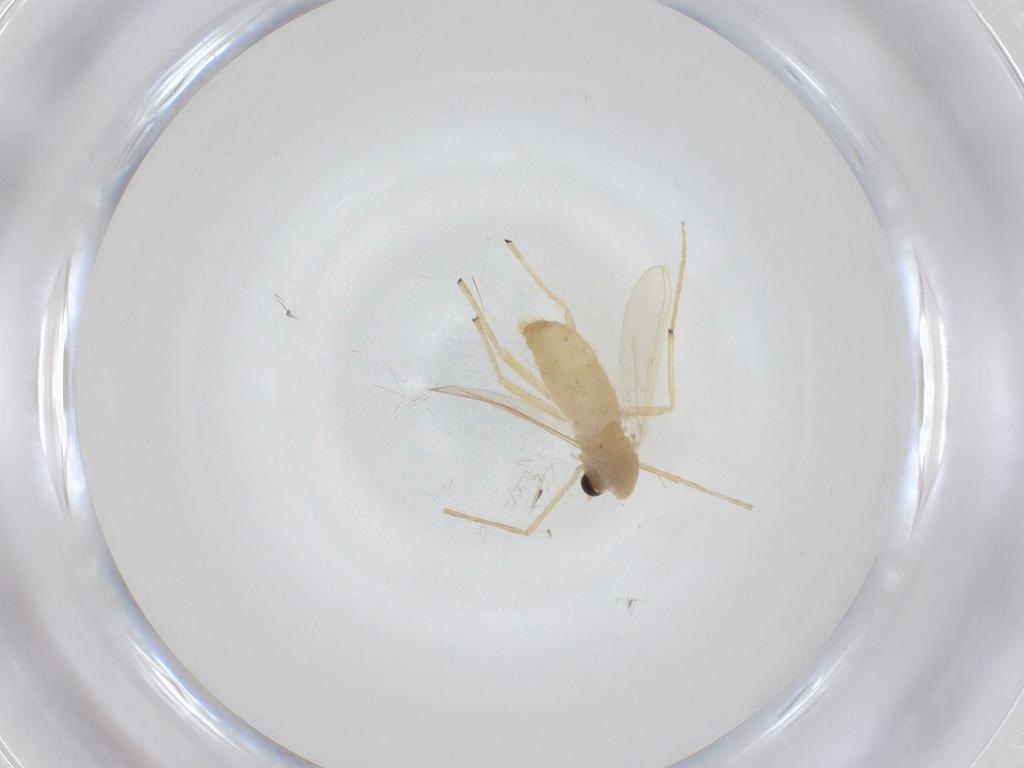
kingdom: Animalia
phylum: Arthropoda
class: Insecta
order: Diptera
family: Chironomidae
